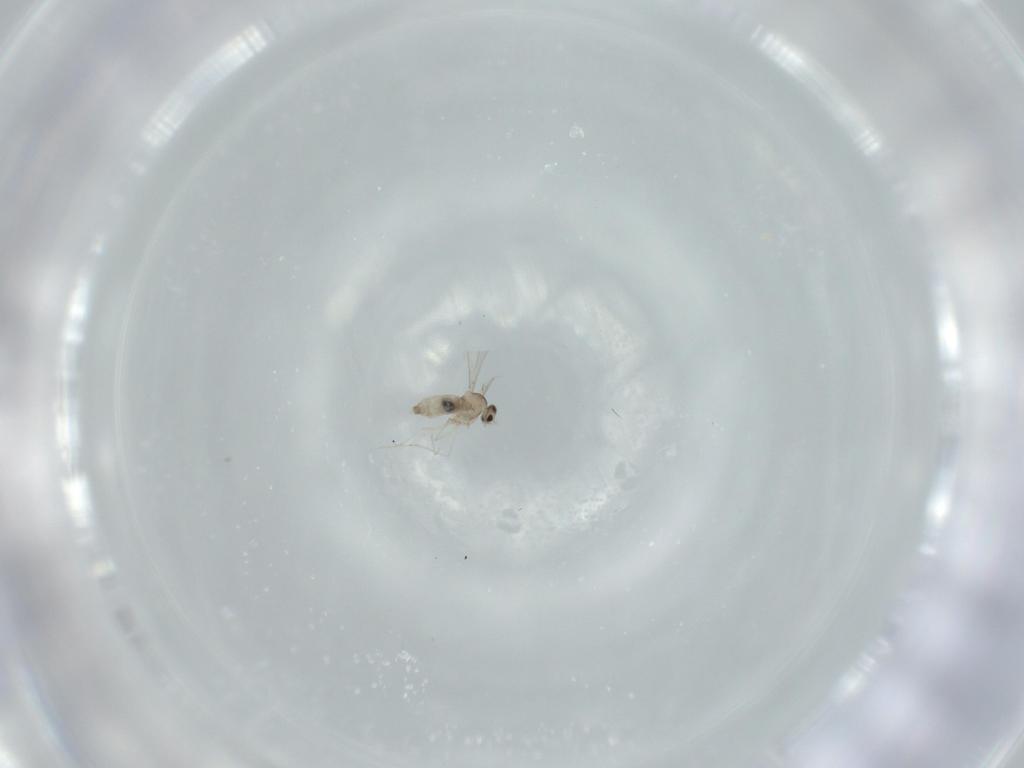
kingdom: Animalia
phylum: Arthropoda
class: Insecta
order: Diptera
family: Cecidomyiidae
